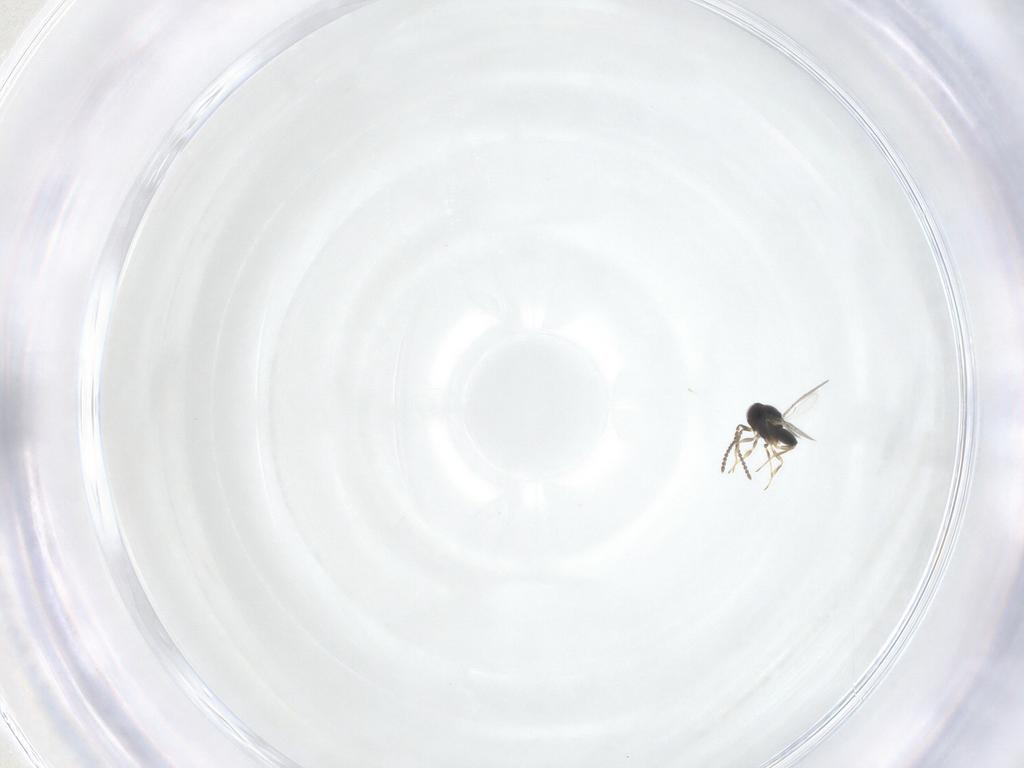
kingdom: Animalia
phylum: Arthropoda
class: Insecta
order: Hymenoptera
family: Scelionidae
